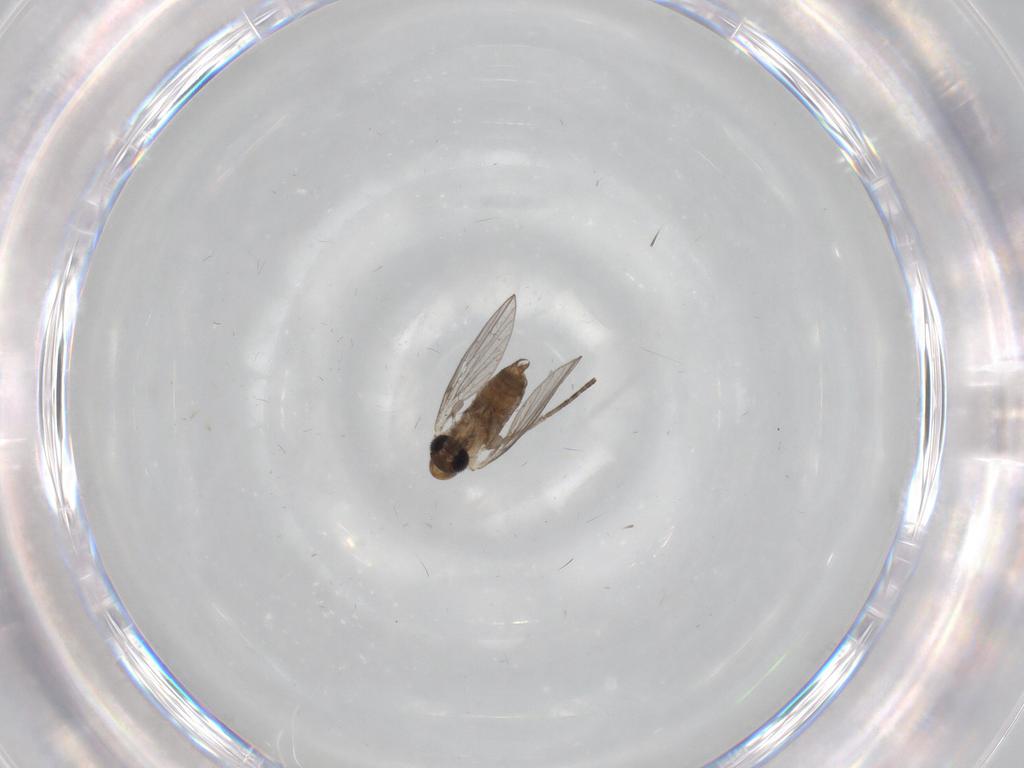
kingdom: Animalia
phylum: Arthropoda
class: Insecta
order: Diptera
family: Chironomidae
